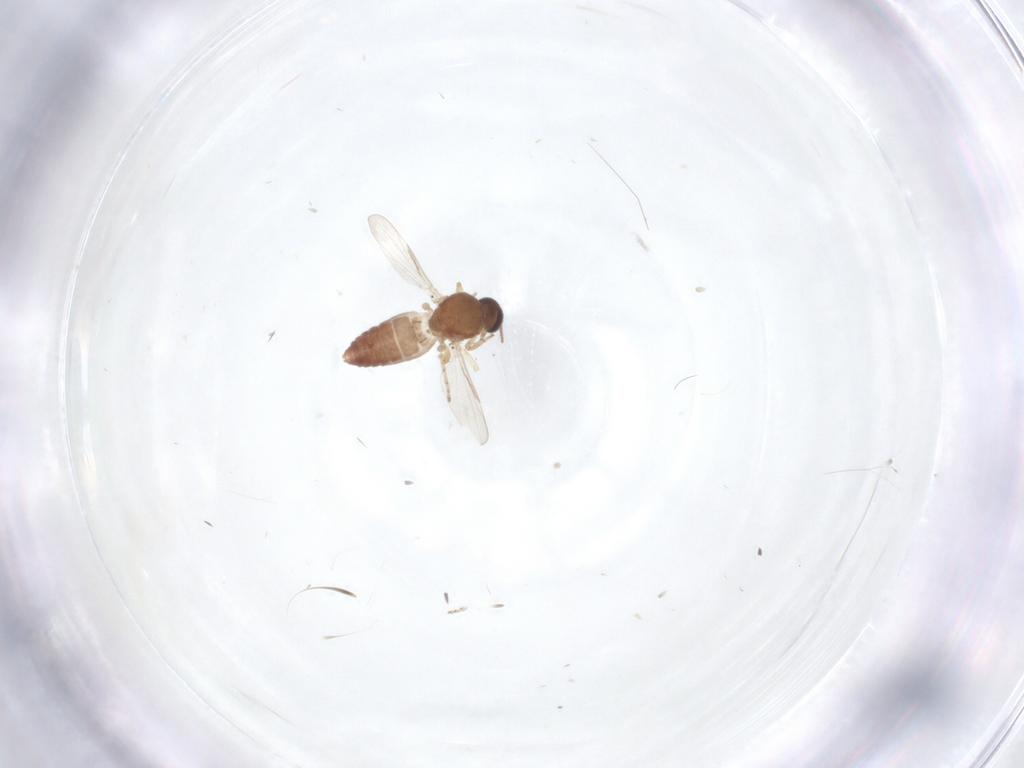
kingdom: Animalia
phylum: Arthropoda
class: Insecta
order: Diptera
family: Ceratopogonidae
